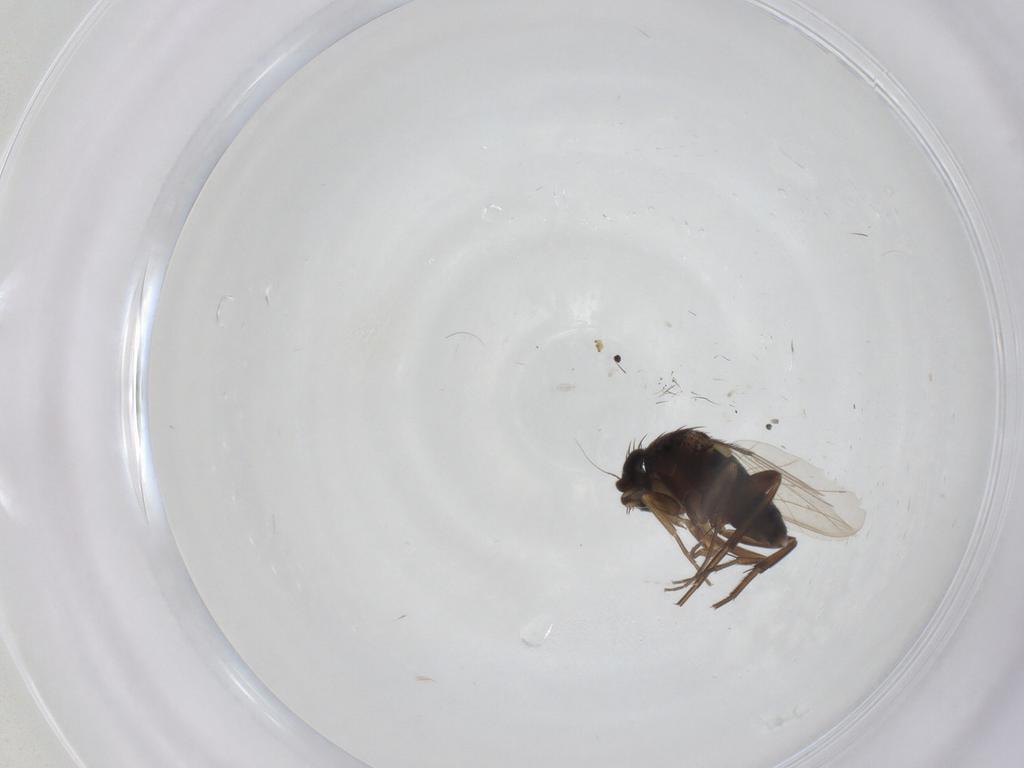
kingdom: Animalia
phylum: Arthropoda
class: Insecta
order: Diptera
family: Phoridae
